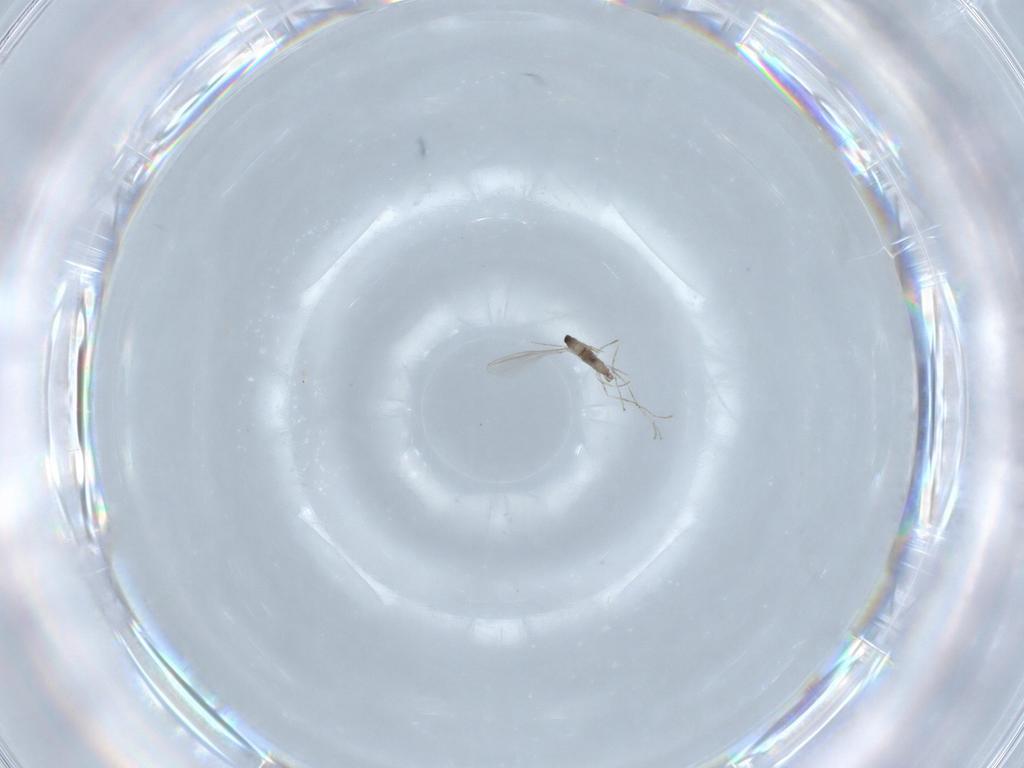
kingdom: Animalia
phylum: Arthropoda
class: Insecta
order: Diptera
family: Cecidomyiidae
